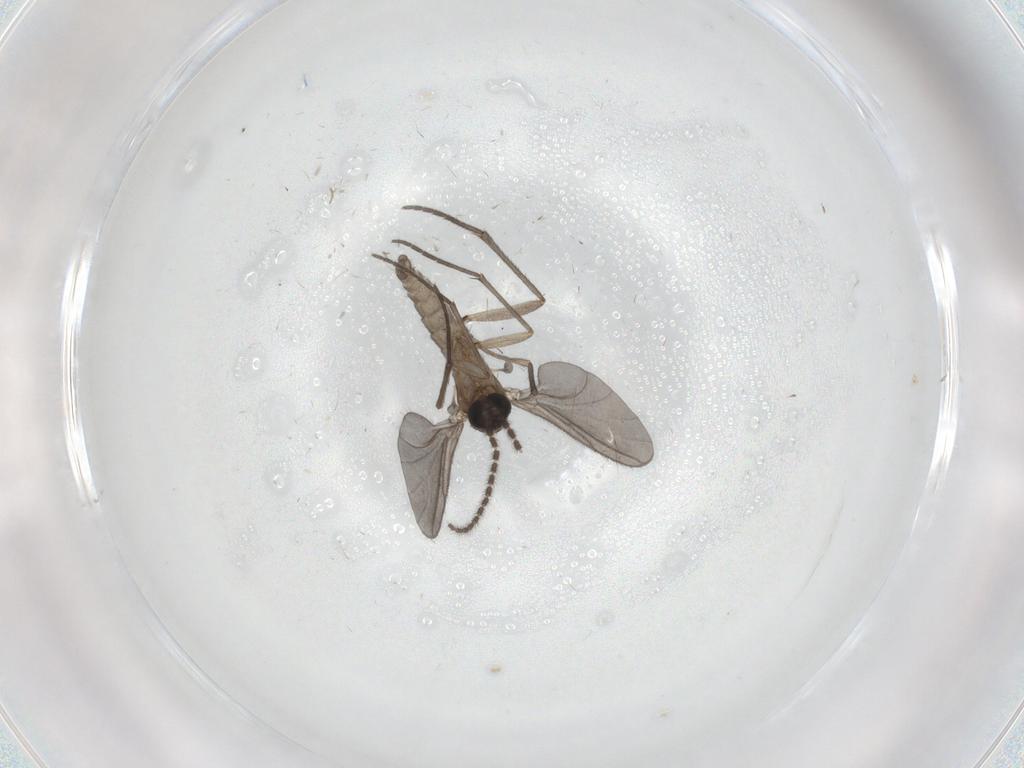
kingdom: Animalia
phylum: Arthropoda
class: Insecta
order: Diptera
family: Sciaridae
